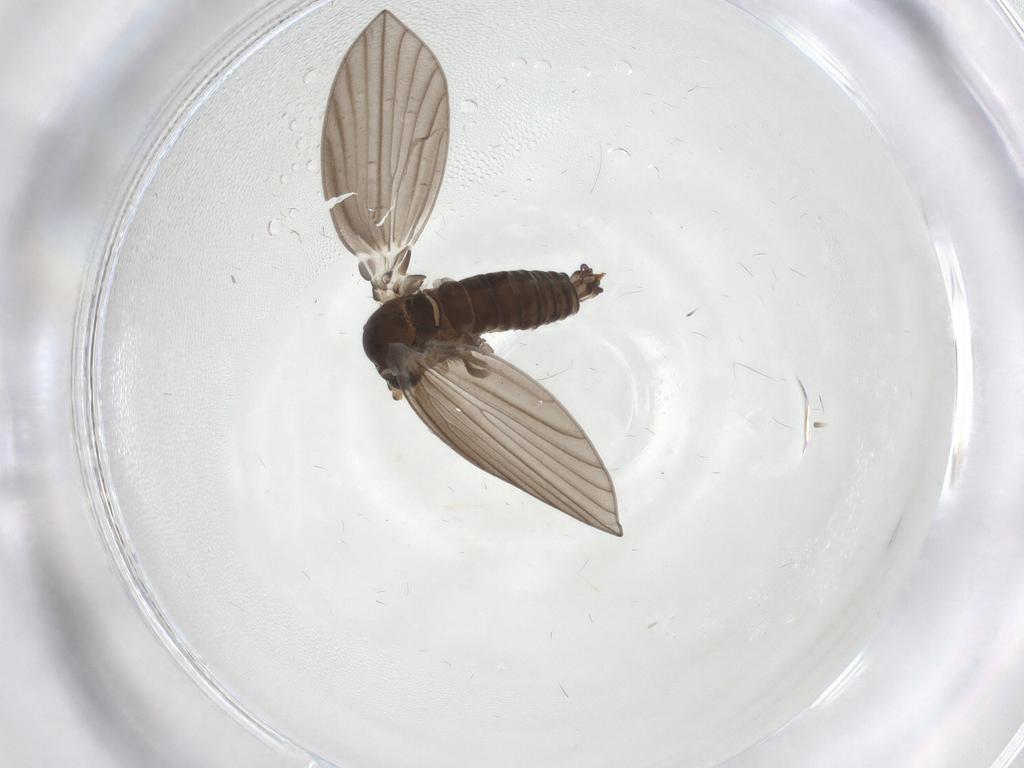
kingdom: Animalia
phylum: Arthropoda
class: Insecta
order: Diptera
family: Psychodidae
